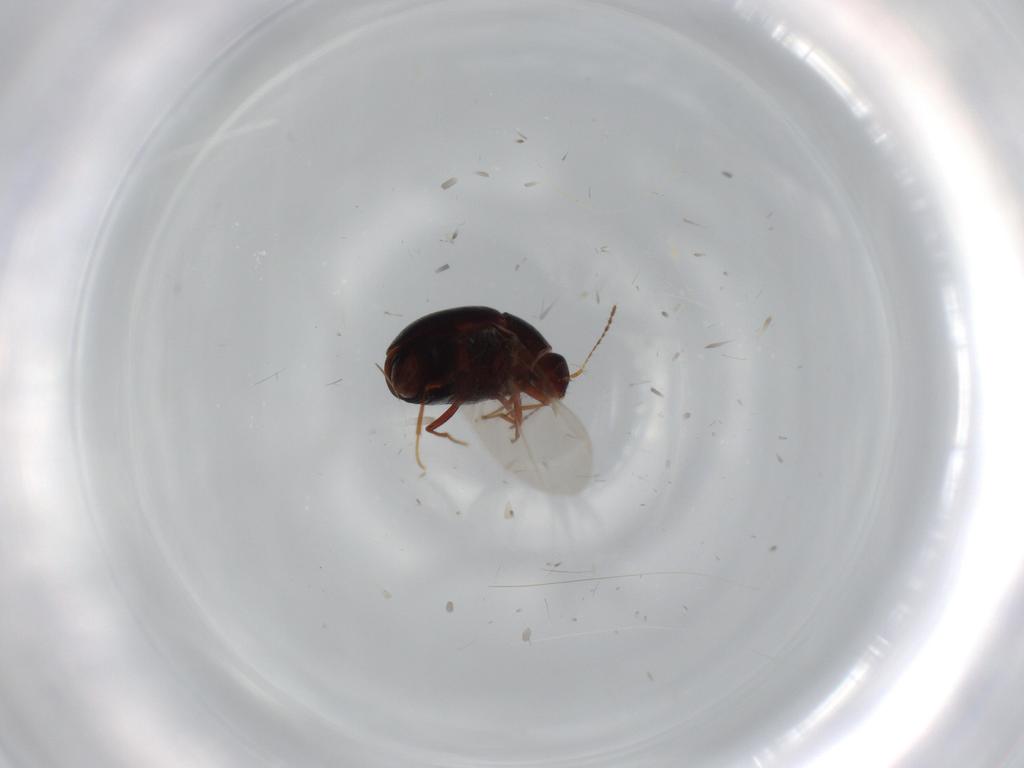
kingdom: Animalia
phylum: Arthropoda
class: Insecta
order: Coleoptera
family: Staphylinidae
